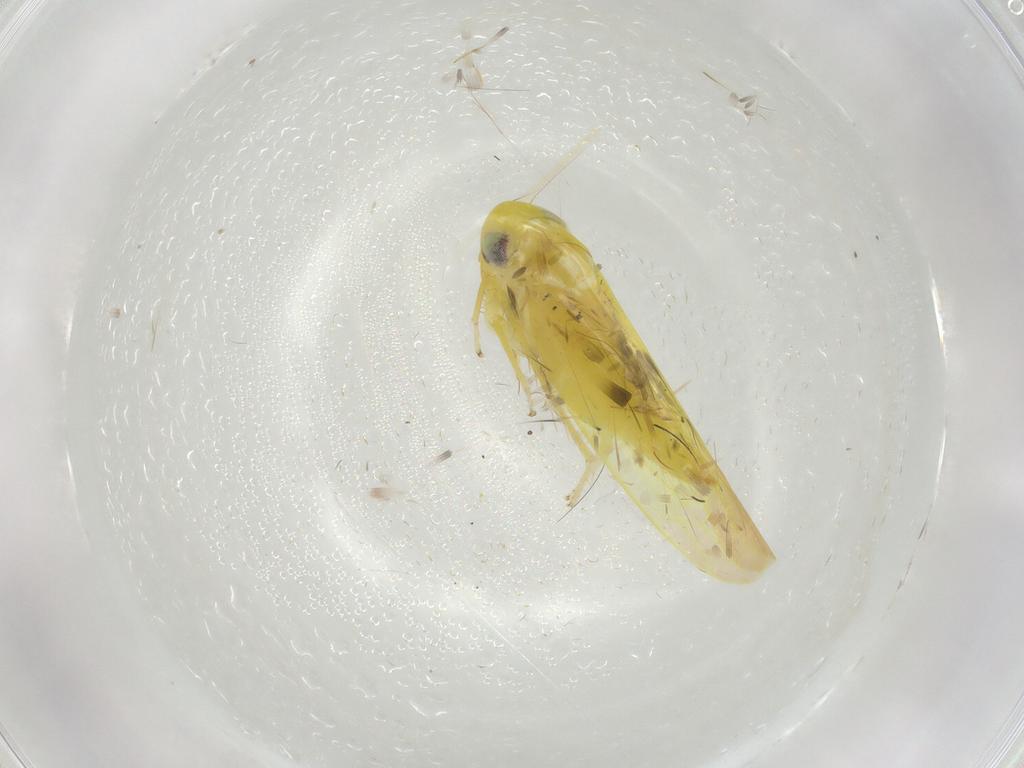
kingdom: Animalia
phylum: Arthropoda
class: Insecta
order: Hemiptera
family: Cicadellidae
